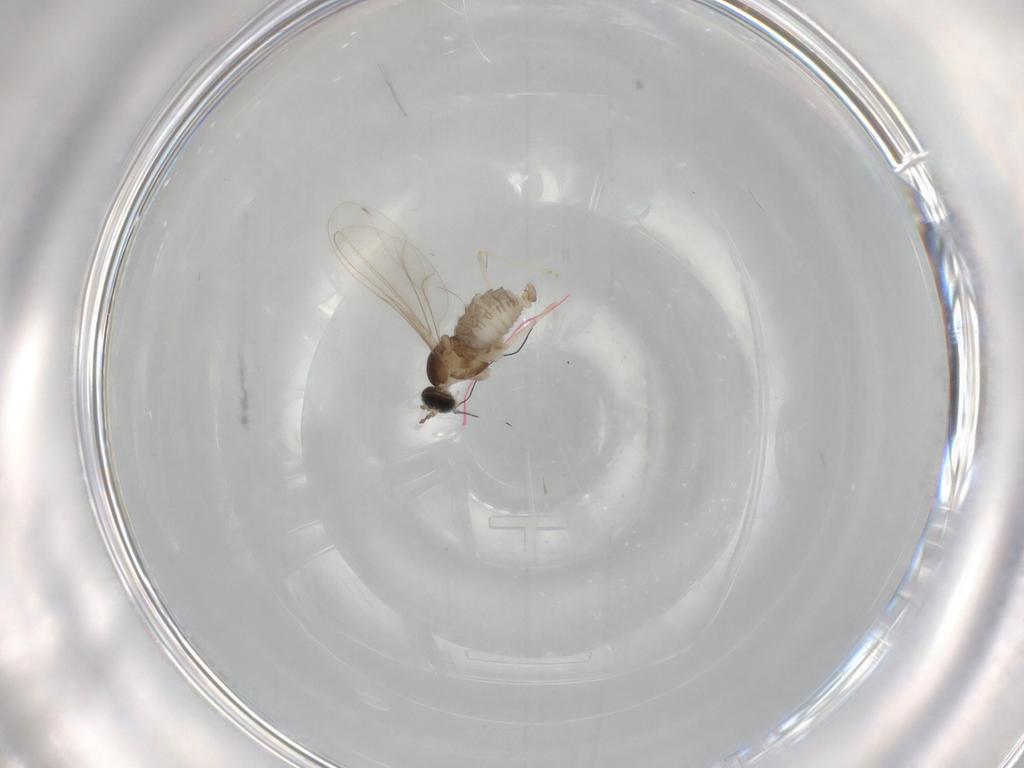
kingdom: Animalia
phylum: Arthropoda
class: Insecta
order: Diptera
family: Cecidomyiidae
